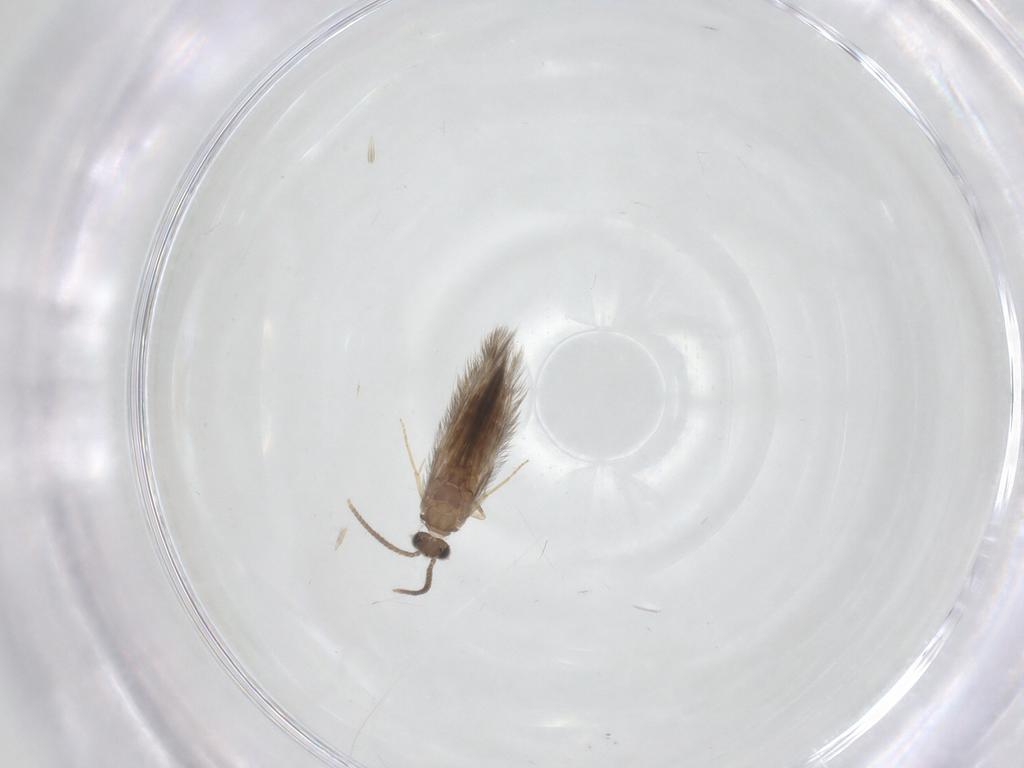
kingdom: Animalia
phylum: Arthropoda
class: Insecta
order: Trichoptera
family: Hydroptilidae
